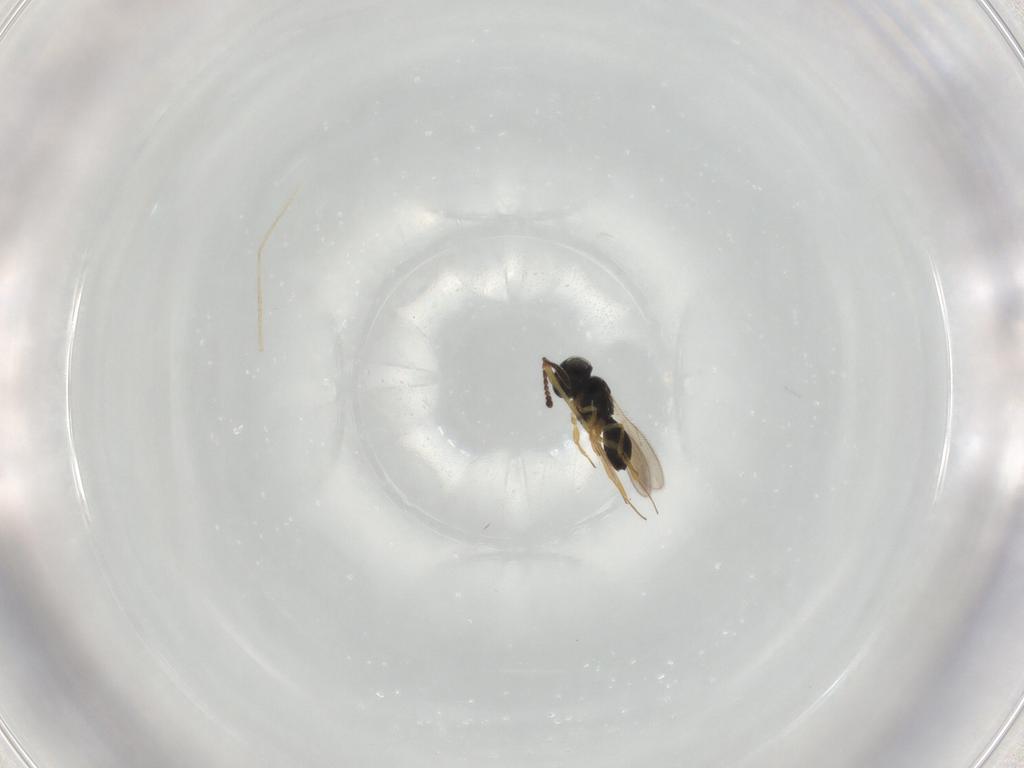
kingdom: Animalia
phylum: Arthropoda
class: Insecta
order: Hymenoptera
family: Scelionidae
